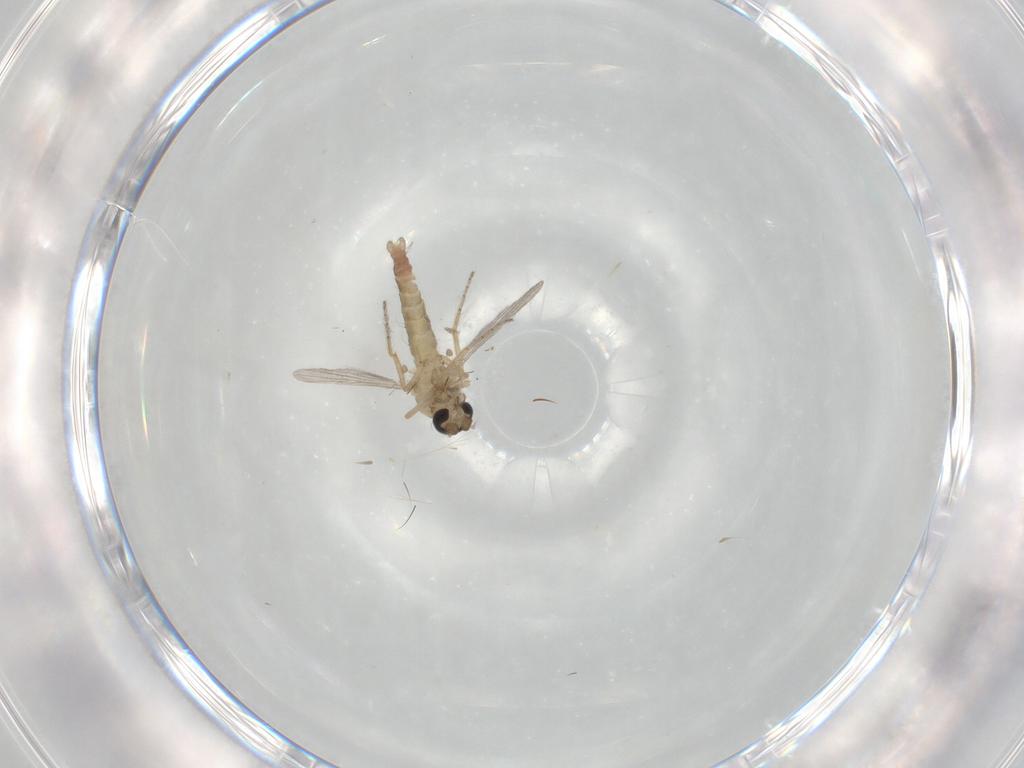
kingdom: Animalia
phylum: Arthropoda
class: Insecta
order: Diptera
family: Ceratopogonidae
